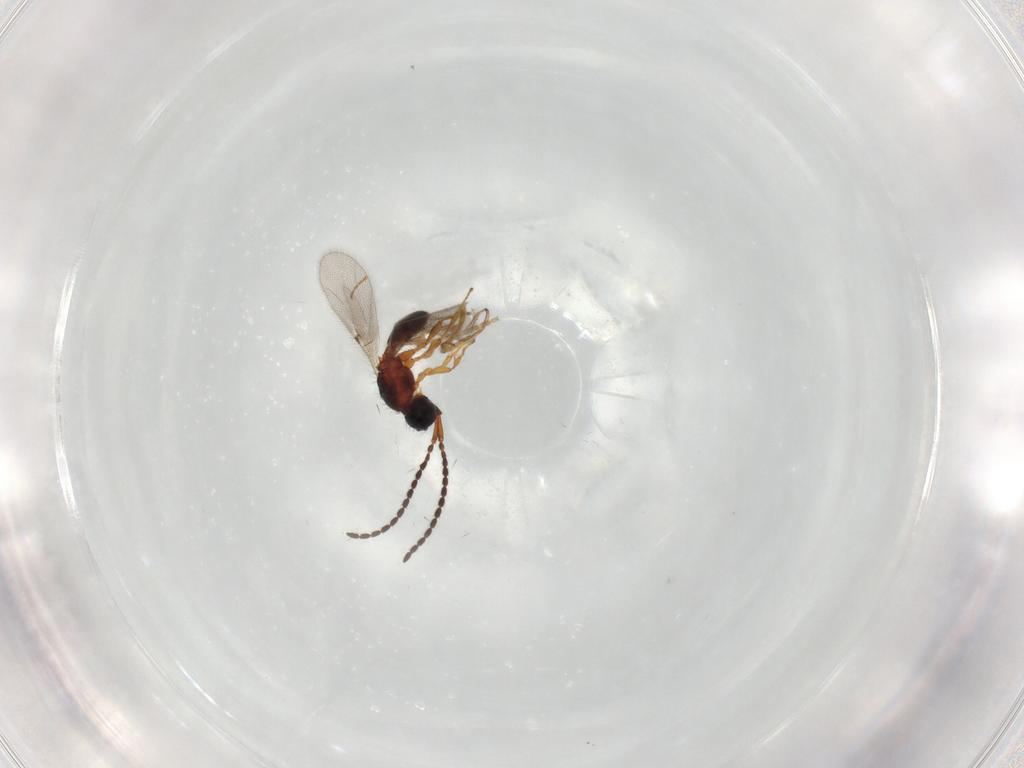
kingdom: Animalia
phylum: Arthropoda
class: Insecta
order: Hymenoptera
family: Diapriidae
